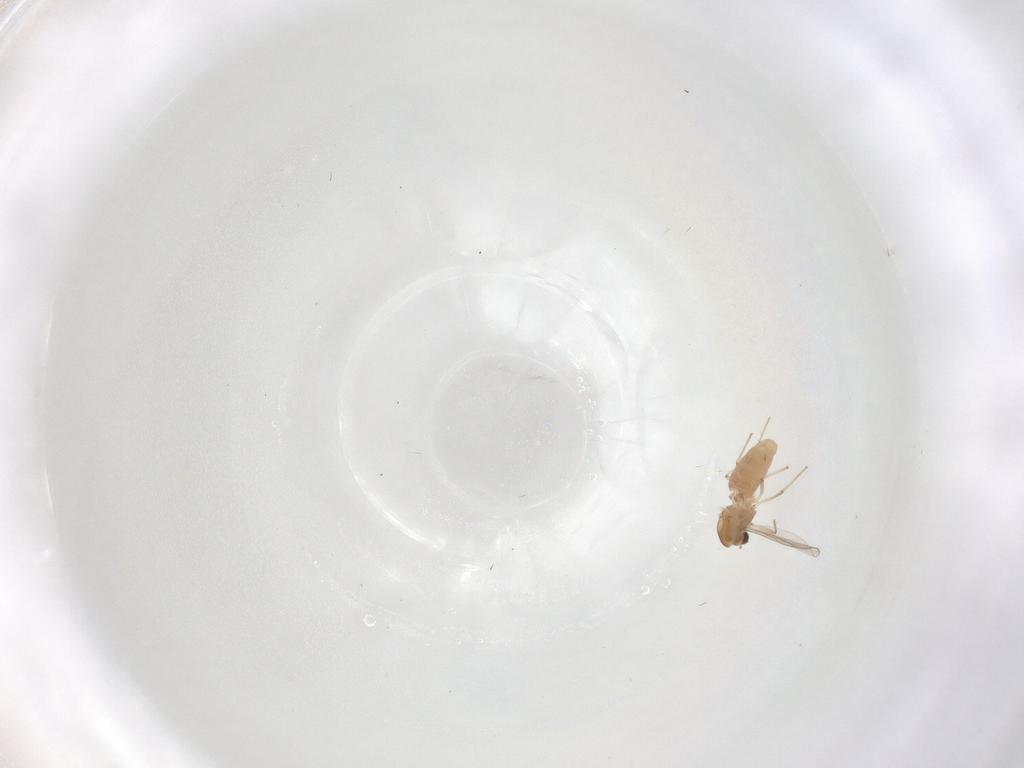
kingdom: Animalia
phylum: Arthropoda
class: Insecta
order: Diptera
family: Chironomidae
